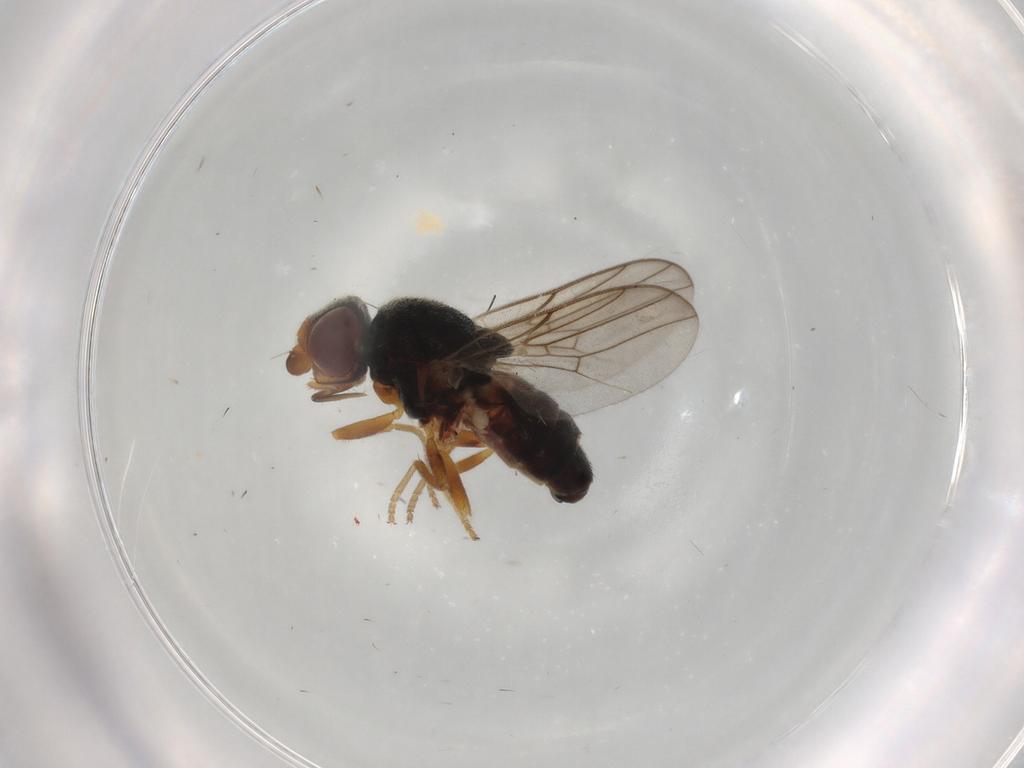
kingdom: Animalia
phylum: Arthropoda
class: Insecta
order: Diptera
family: Chloropidae
